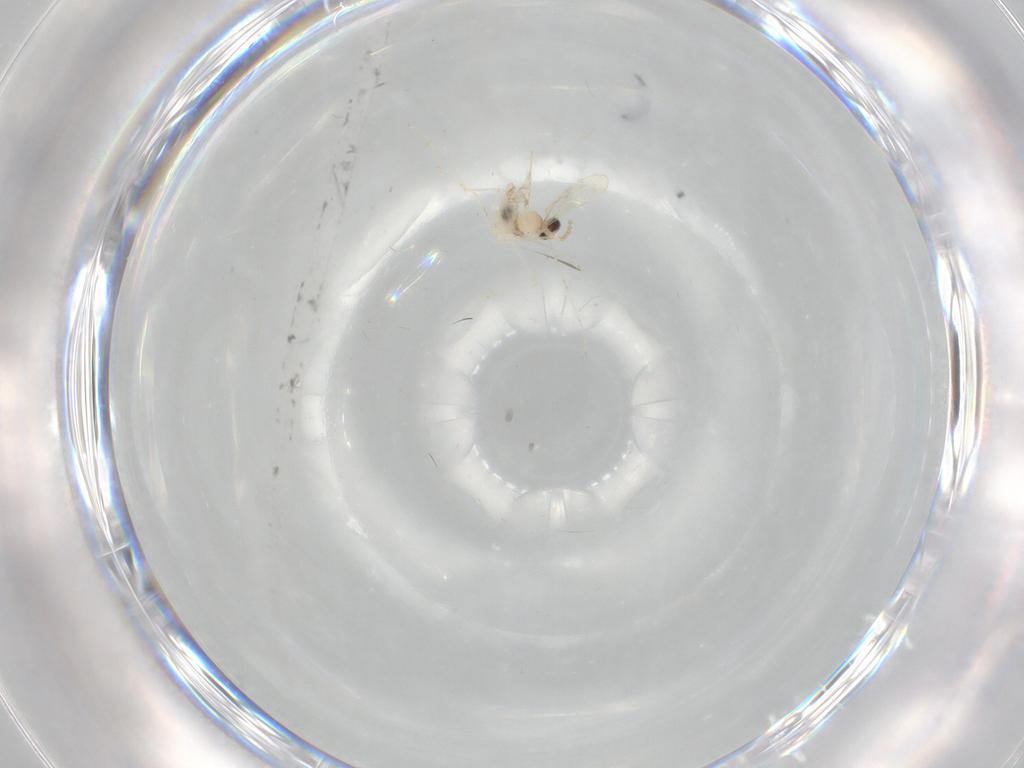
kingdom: Animalia
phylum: Arthropoda
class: Insecta
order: Diptera
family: Chironomidae
